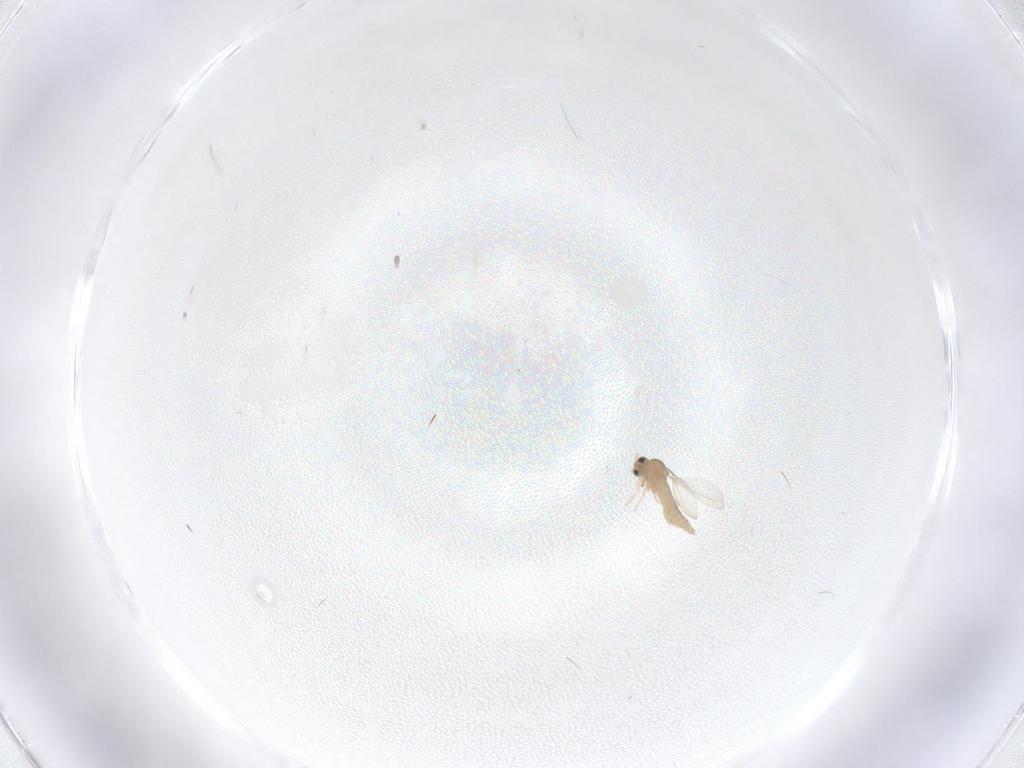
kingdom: Animalia
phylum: Arthropoda
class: Insecta
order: Diptera
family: Cecidomyiidae
